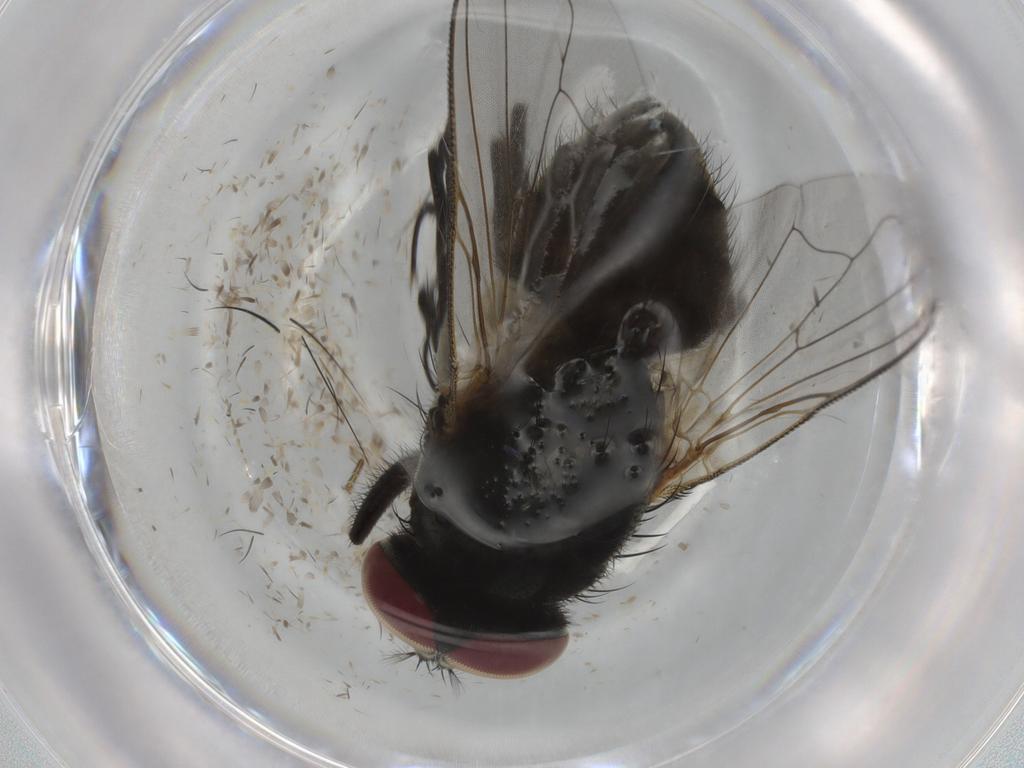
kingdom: Animalia
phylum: Arthropoda
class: Insecta
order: Diptera
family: Muscidae
